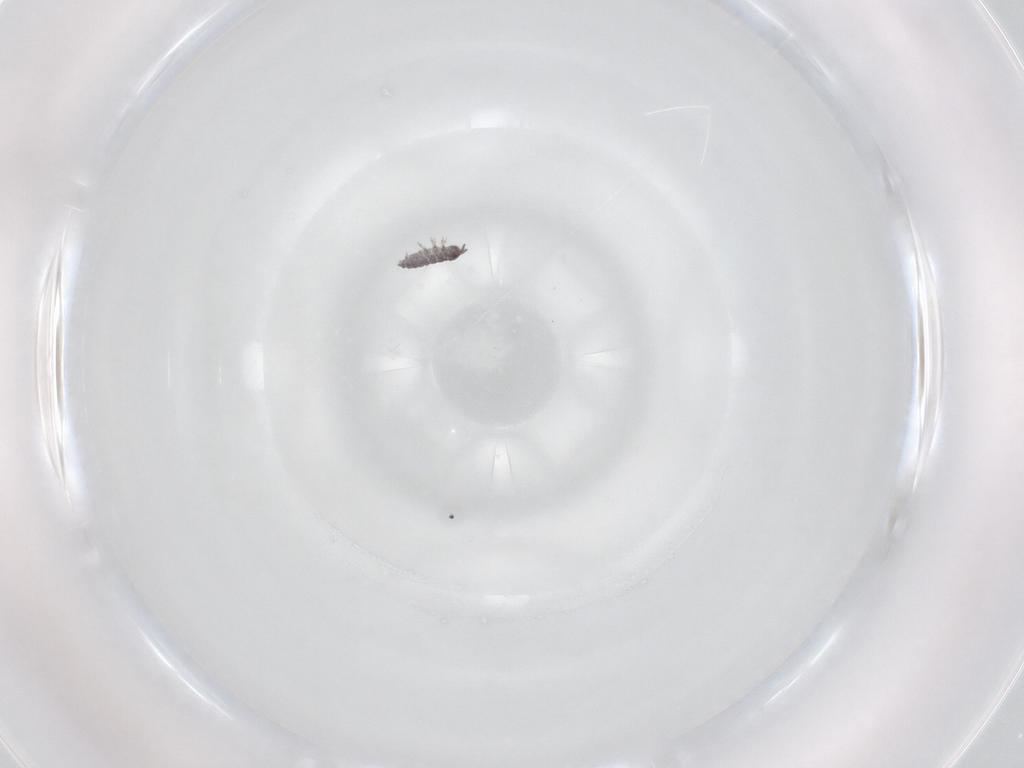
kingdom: Animalia
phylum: Arthropoda
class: Collembola
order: Poduromorpha
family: Hypogastruridae
